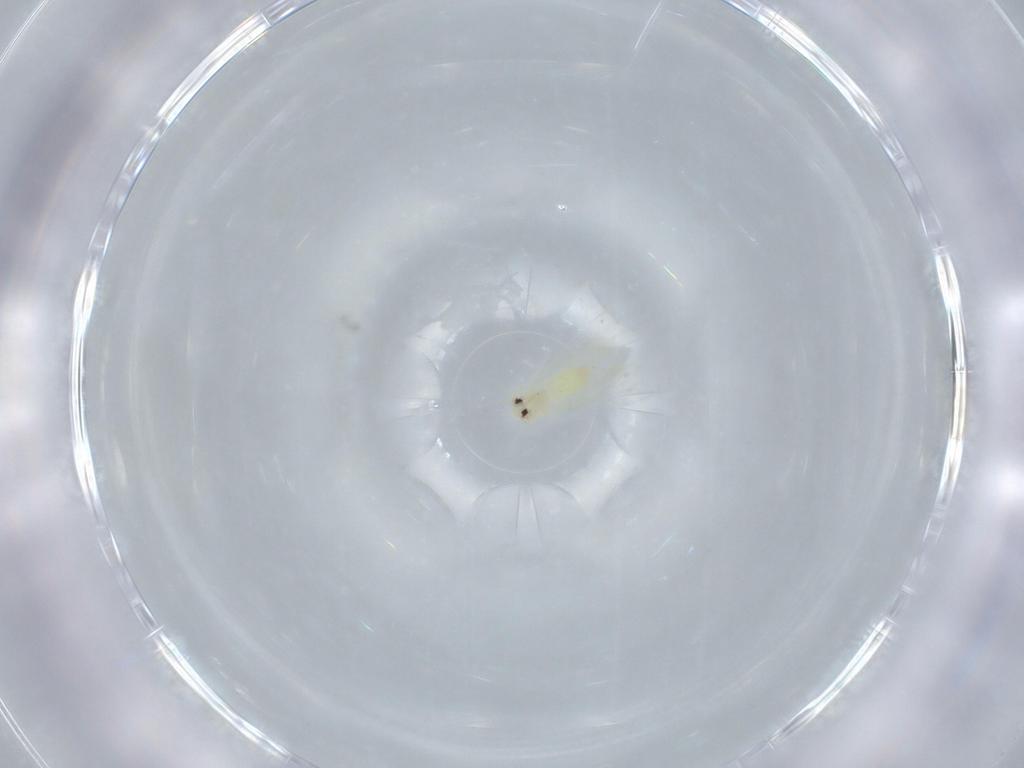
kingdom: Animalia
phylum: Arthropoda
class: Insecta
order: Hemiptera
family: Aleyrodidae
